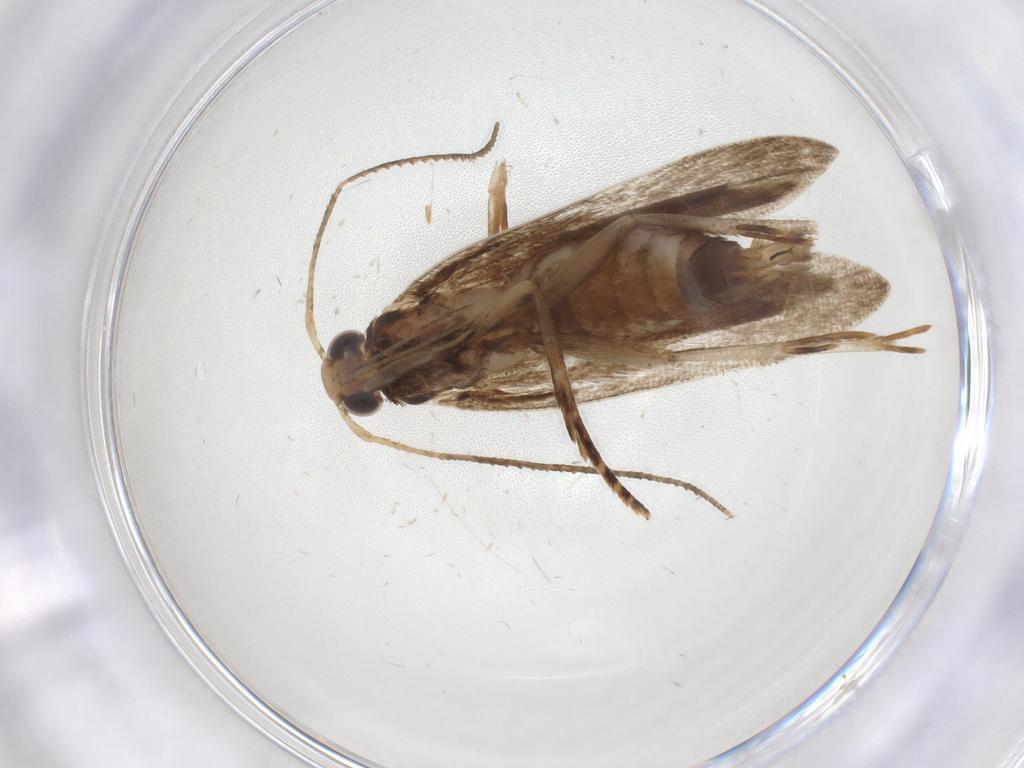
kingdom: Animalia
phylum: Arthropoda
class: Insecta
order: Lepidoptera
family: Gelechiidae
